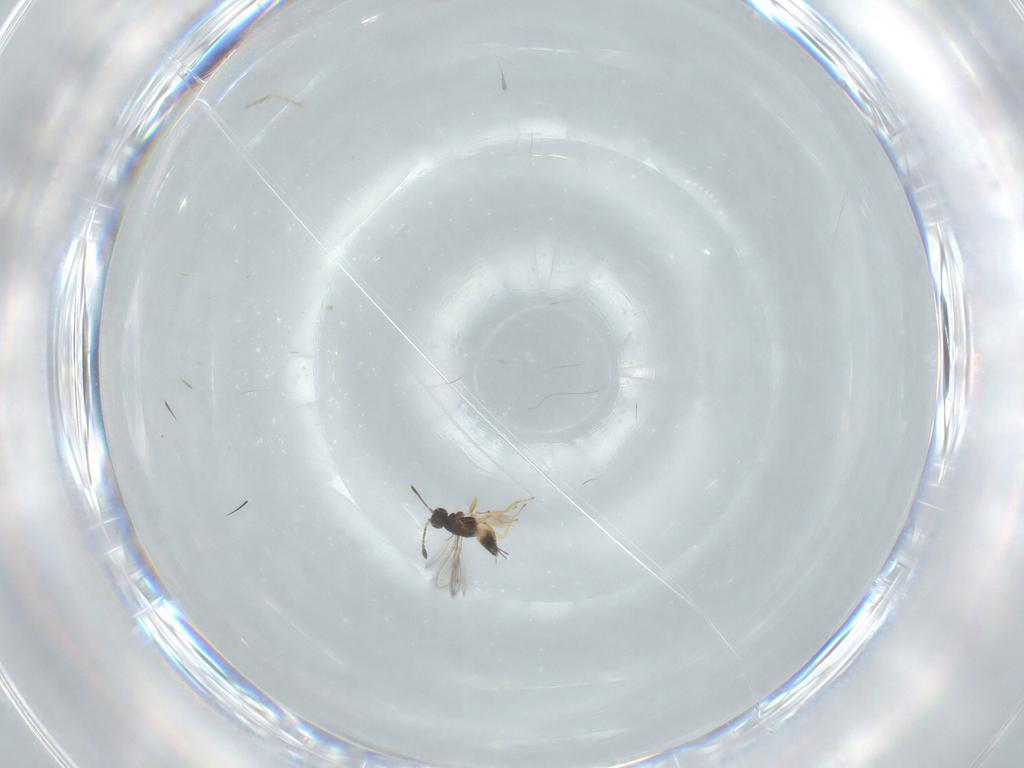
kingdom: Animalia
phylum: Arthropoda
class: Insecta
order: Hymenoptera
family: Mymaridae
